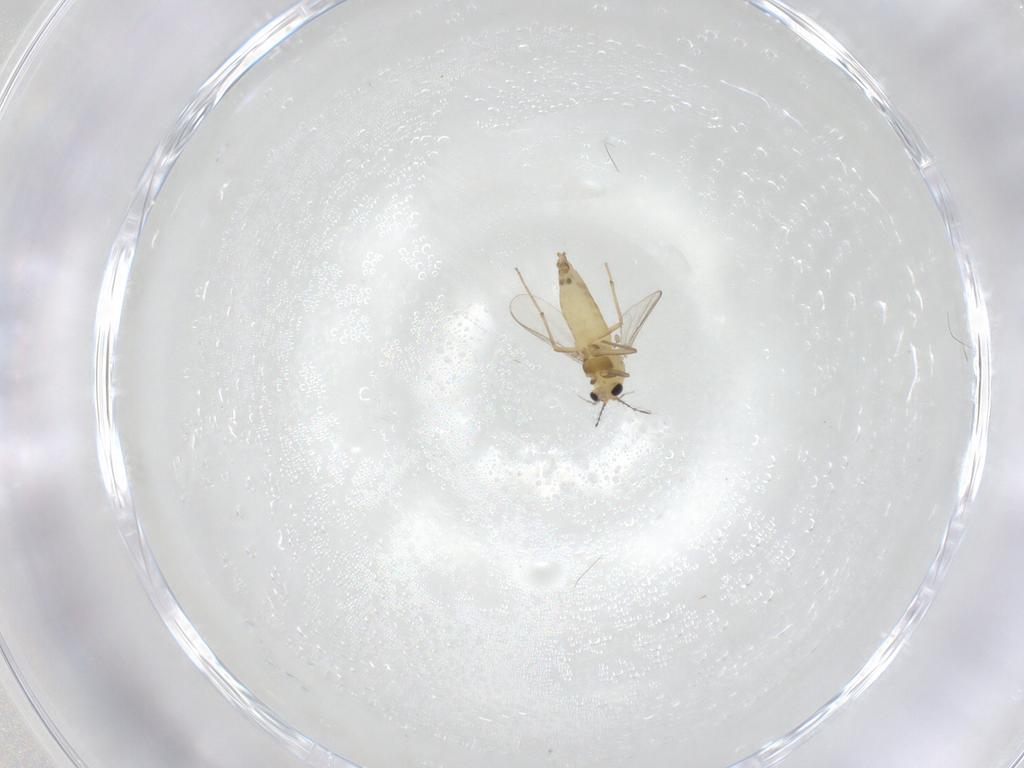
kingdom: Animalia
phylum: Arthropoda
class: Insecta
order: Diptera
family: Chironomidae
